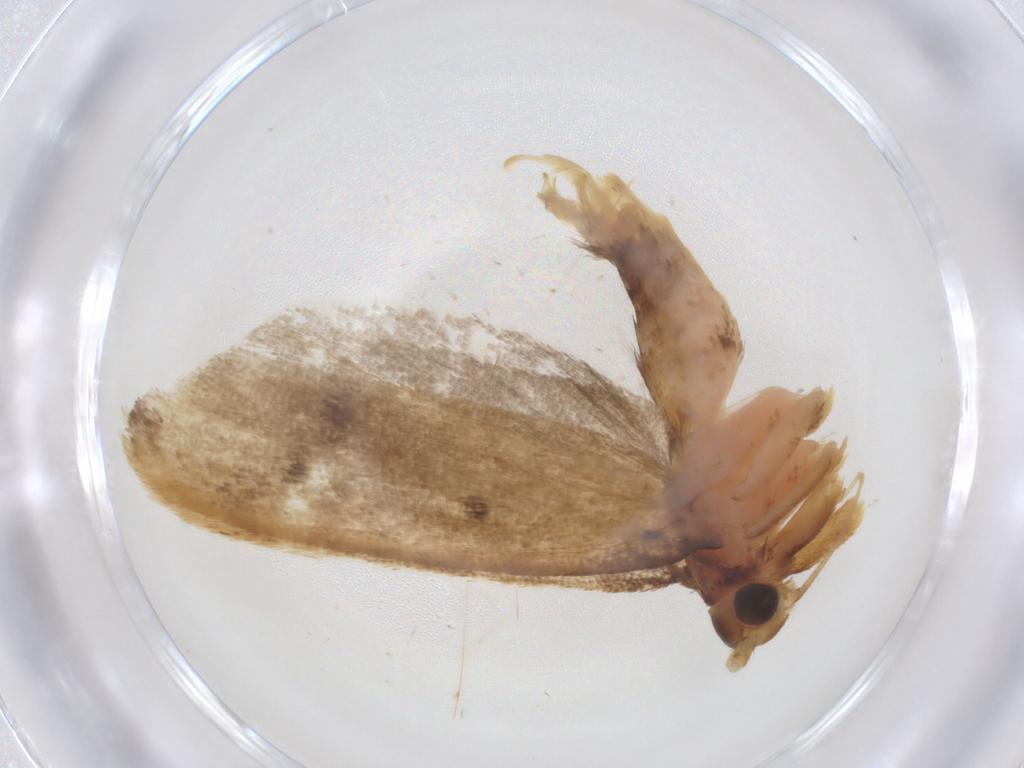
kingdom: Animalia
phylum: Arthropoda
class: Insecta
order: Lepidoptera
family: Lecithoceridae
